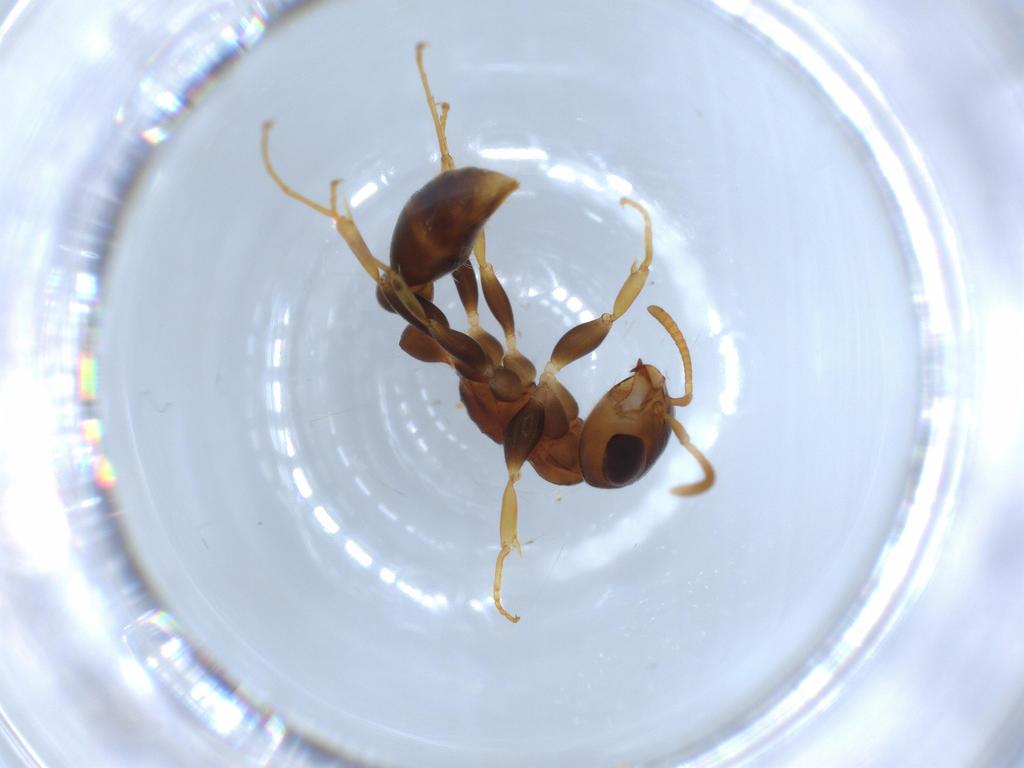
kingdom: Animalia
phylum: Arthropoda
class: Insecta
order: Hymenoptera
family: Formicidae
